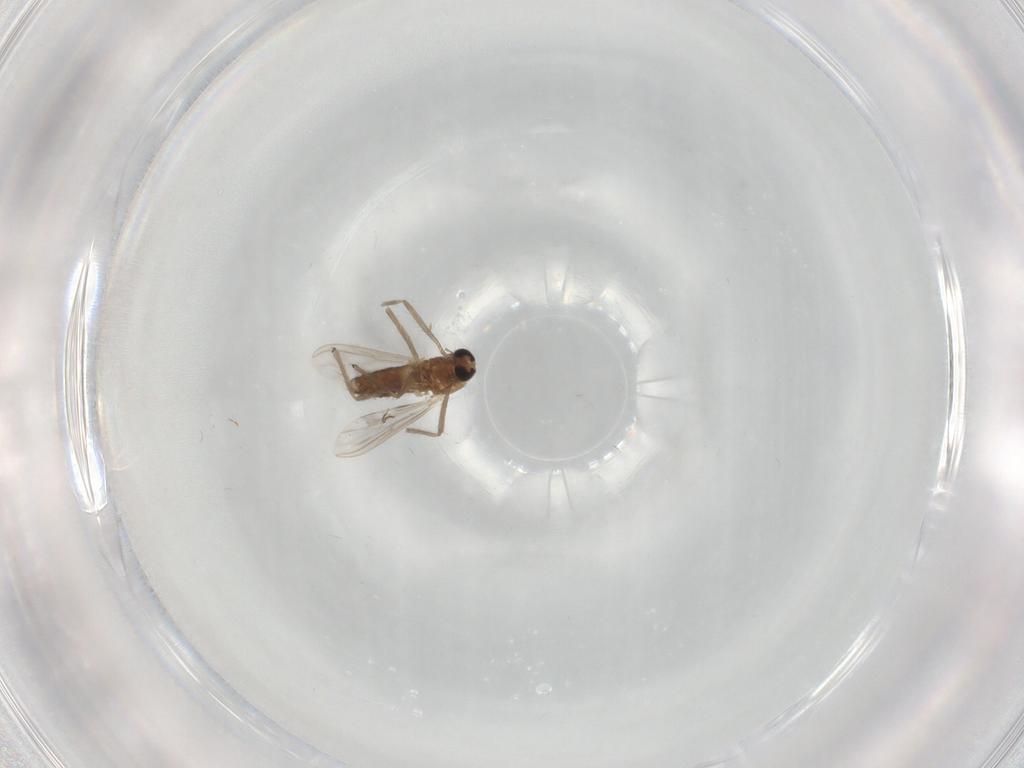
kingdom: Animalia
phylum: Arthropoda
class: Insecta
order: Diptera
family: Chironomidae
